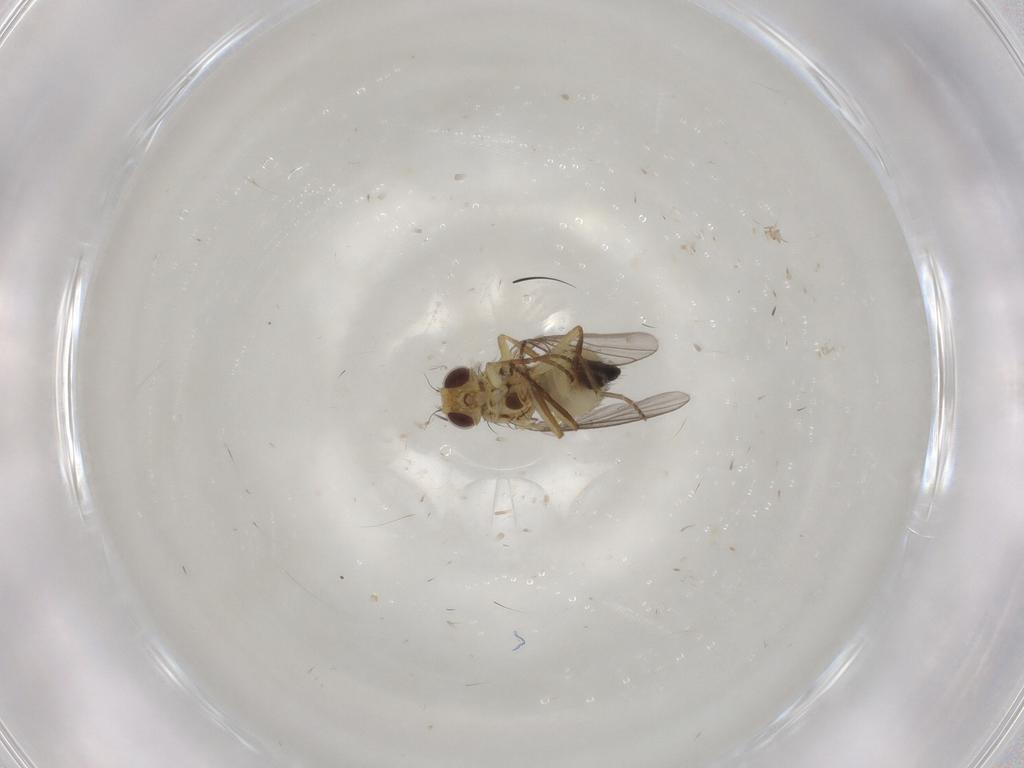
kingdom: Animalia
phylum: Arthropoda
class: Insecta
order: Diptera
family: Agromyzidae
